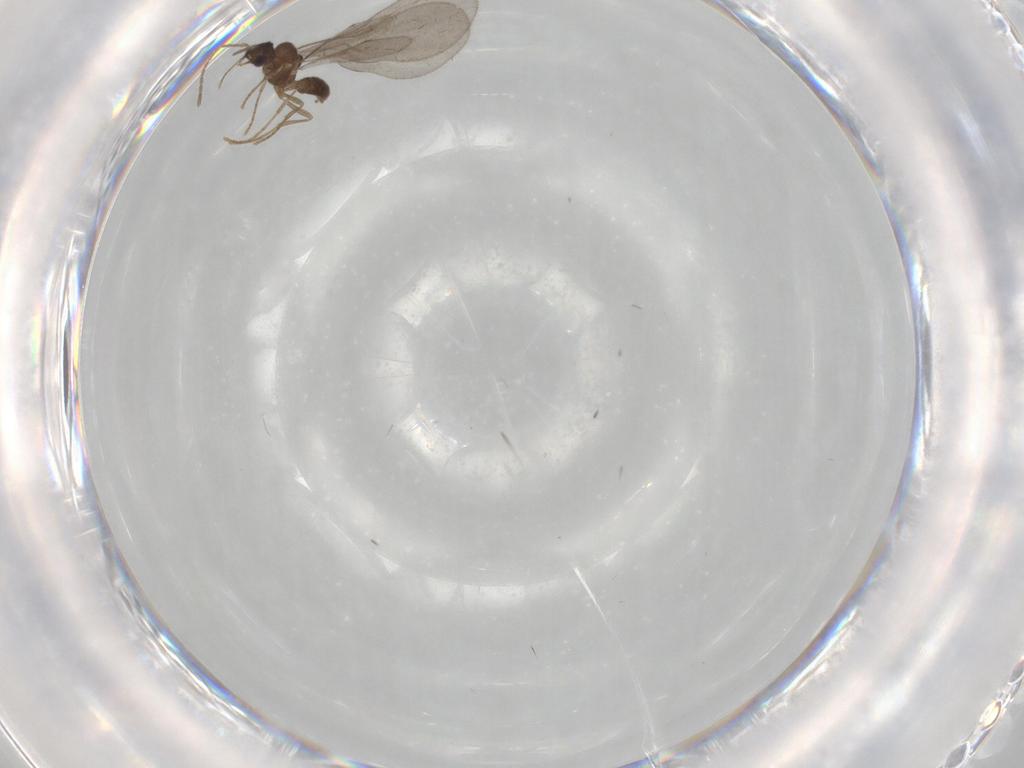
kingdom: Animalia
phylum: Arthropoda
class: Insecta
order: Hymenoptera
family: Formicidae
